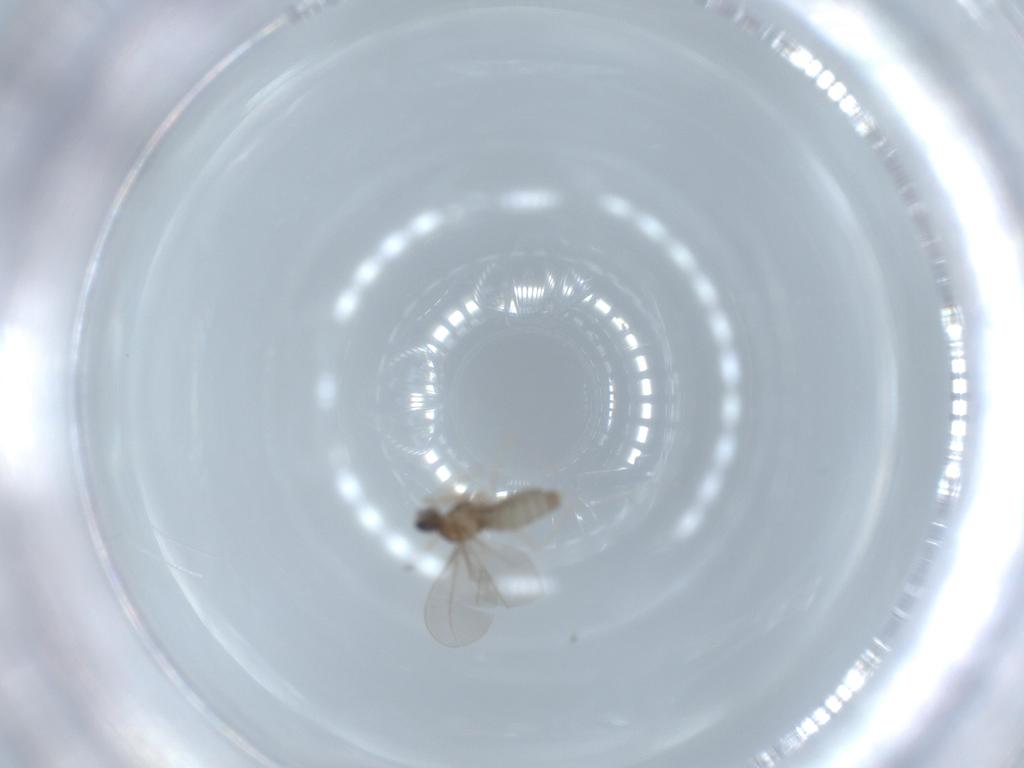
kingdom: Animalia
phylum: Arthropoda
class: Insecta
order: Diptera
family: Cecidomyiidae
